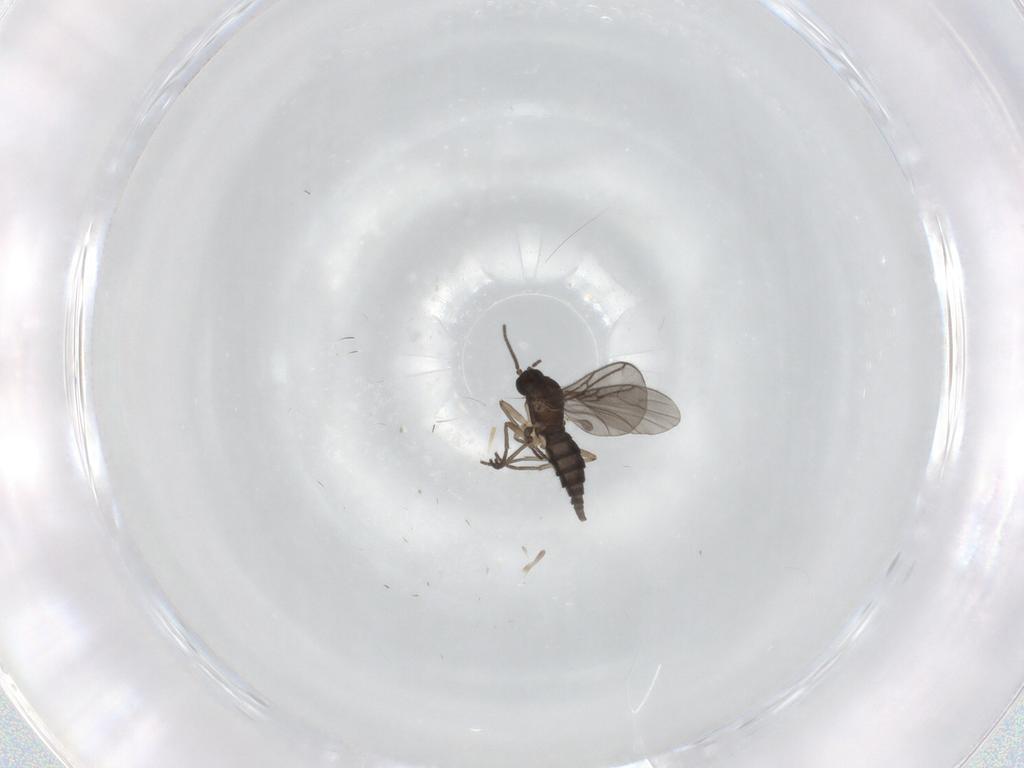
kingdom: Animalia
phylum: Arthropoda
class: Insecta
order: Diptera
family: Sciaridae
